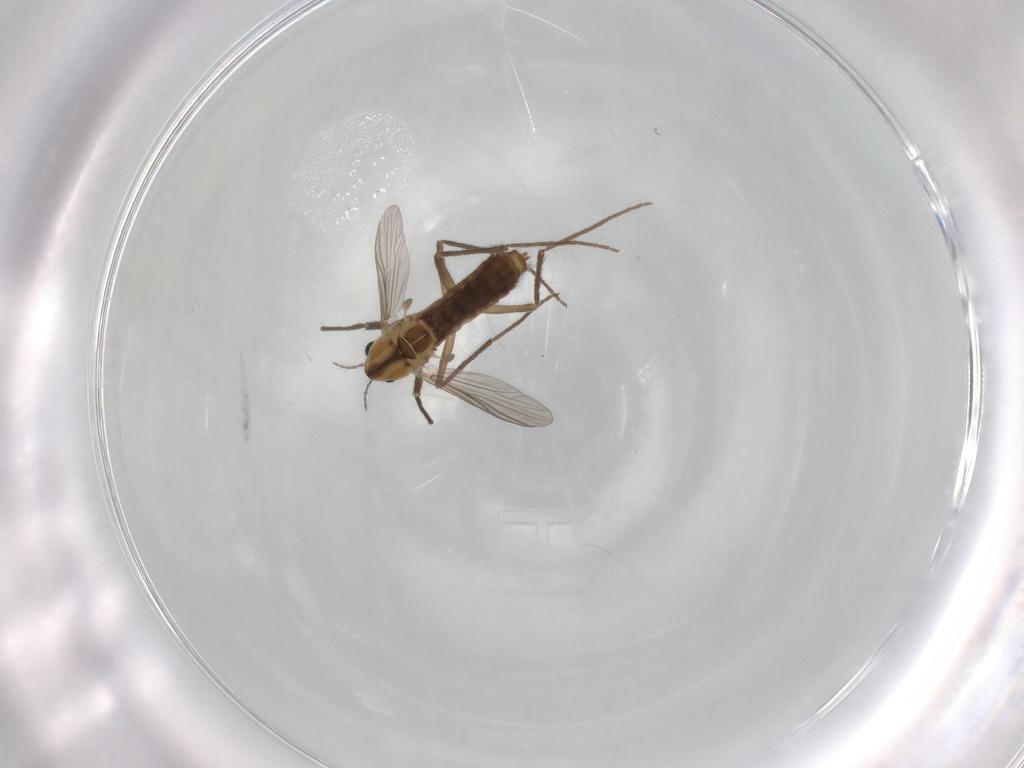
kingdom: Animalia
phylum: Arthropoda
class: Insecta
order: Diptera
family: Chironomidae
